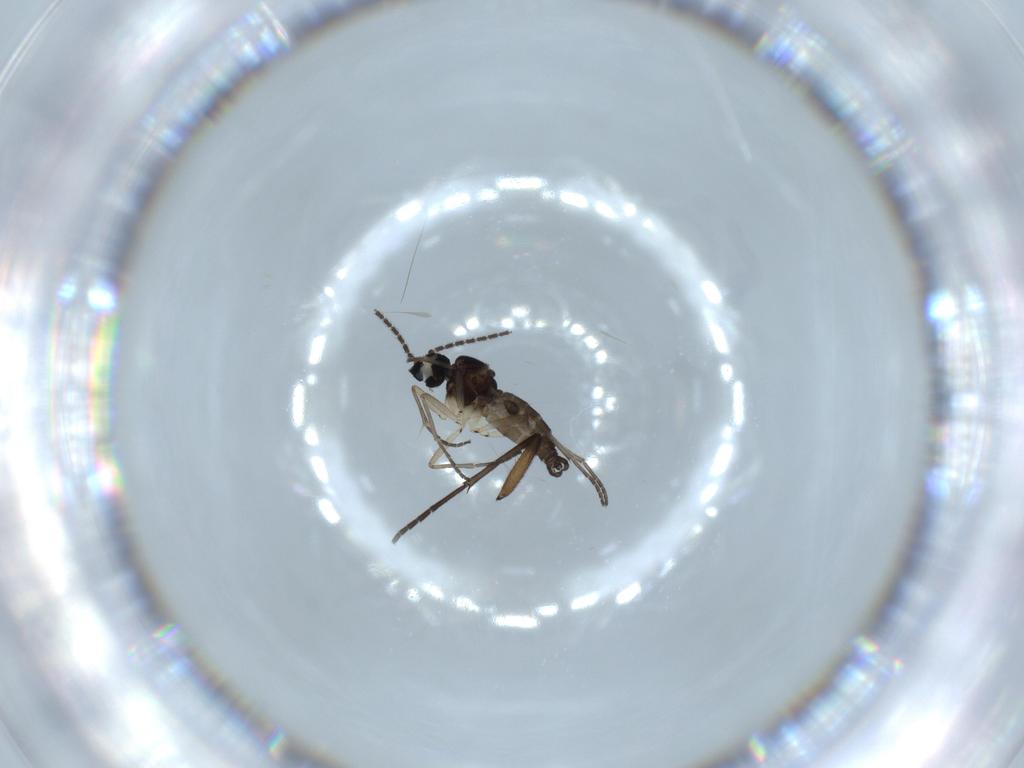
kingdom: Animalia
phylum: Arthropoda
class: Insecta
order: Diptera
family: Sciaridae
